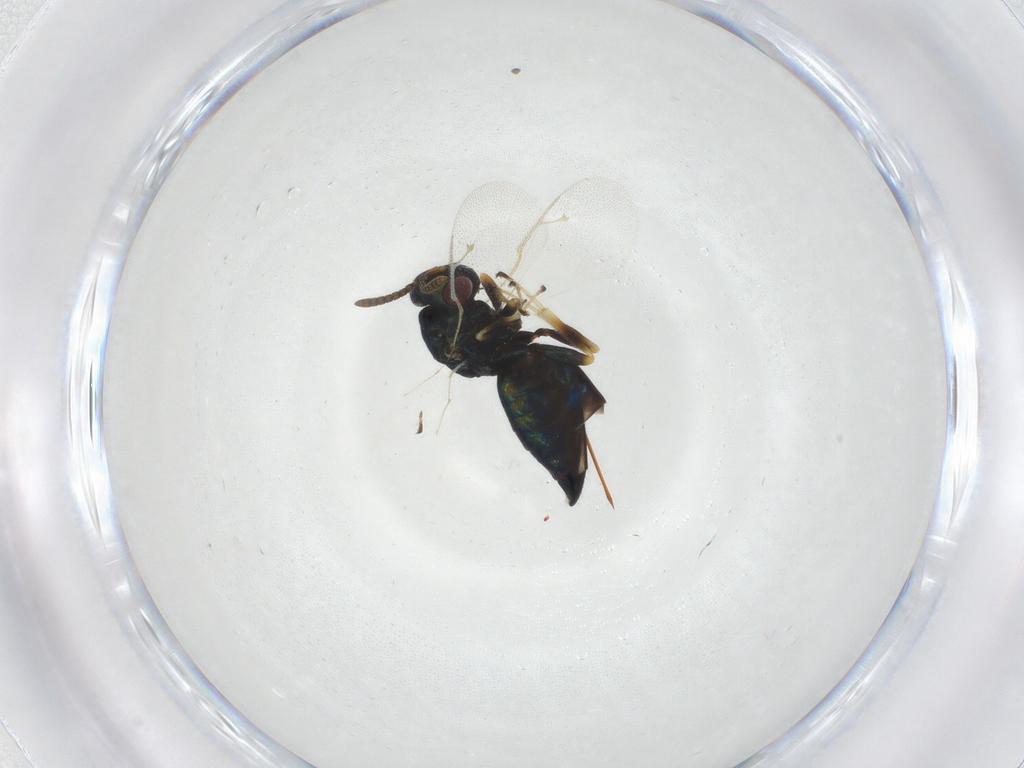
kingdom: Animalia
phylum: Arthropoda
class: Insecta
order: Hymenoptera
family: Pteromalidae
